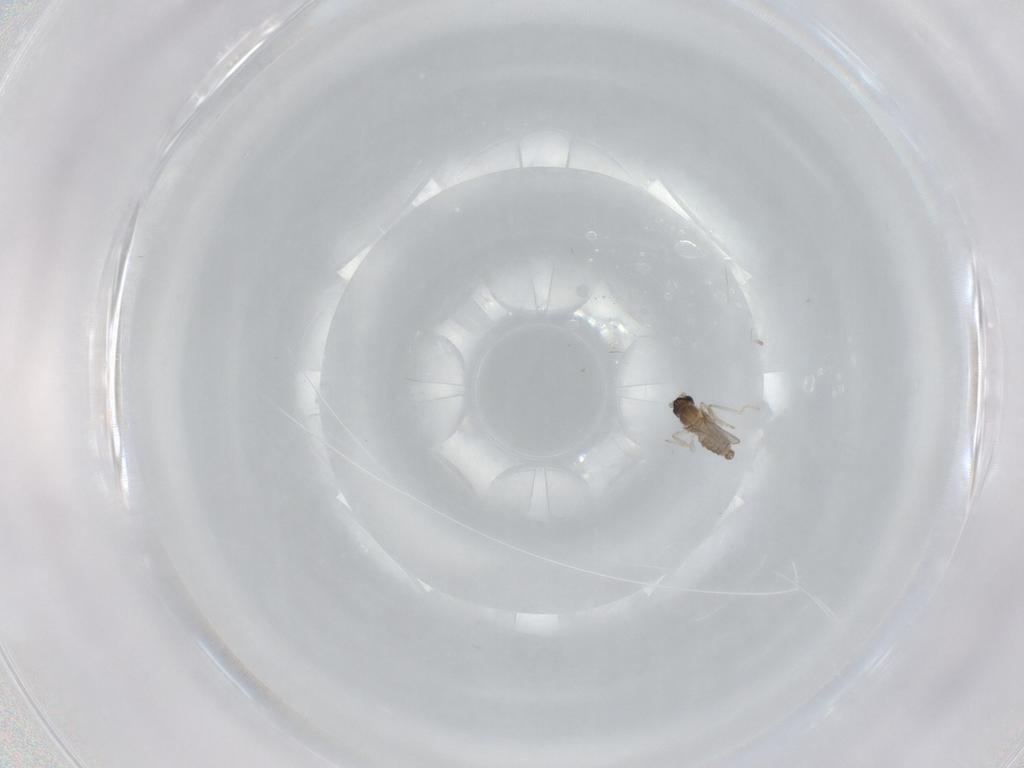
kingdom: Animalia
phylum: Arthropoda
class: Insecta
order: Diptera
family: Cecidomyiidae
